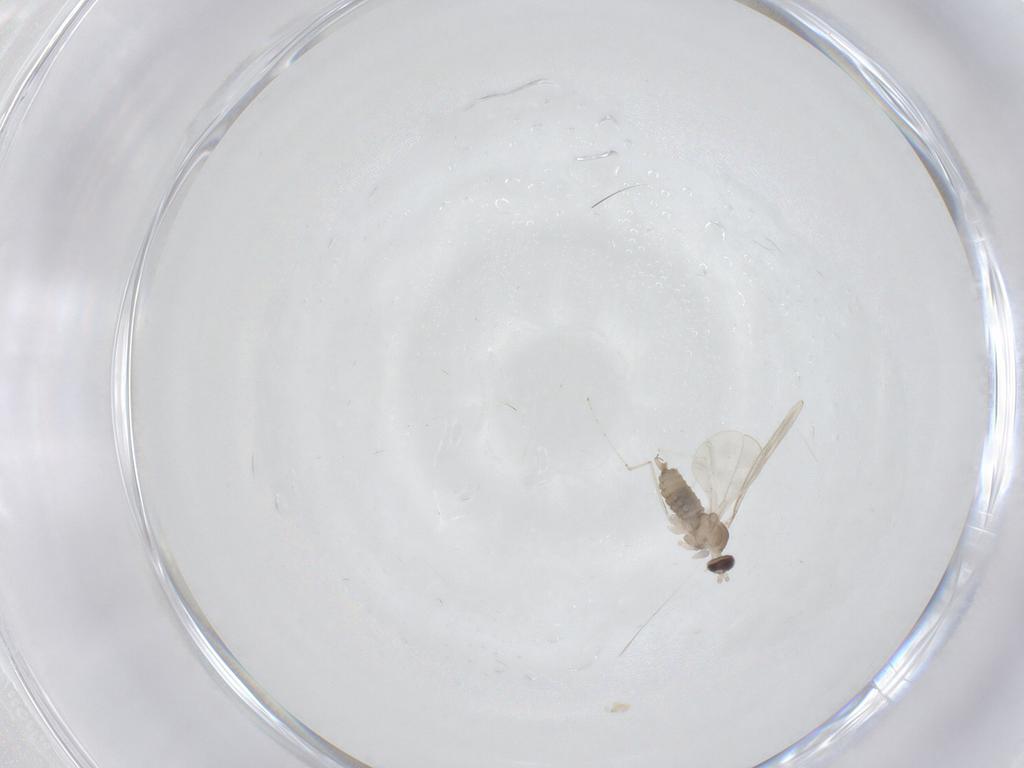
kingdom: Animalia
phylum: Arthropoda
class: Insecta
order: Diptera
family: Cecidomyiidae
